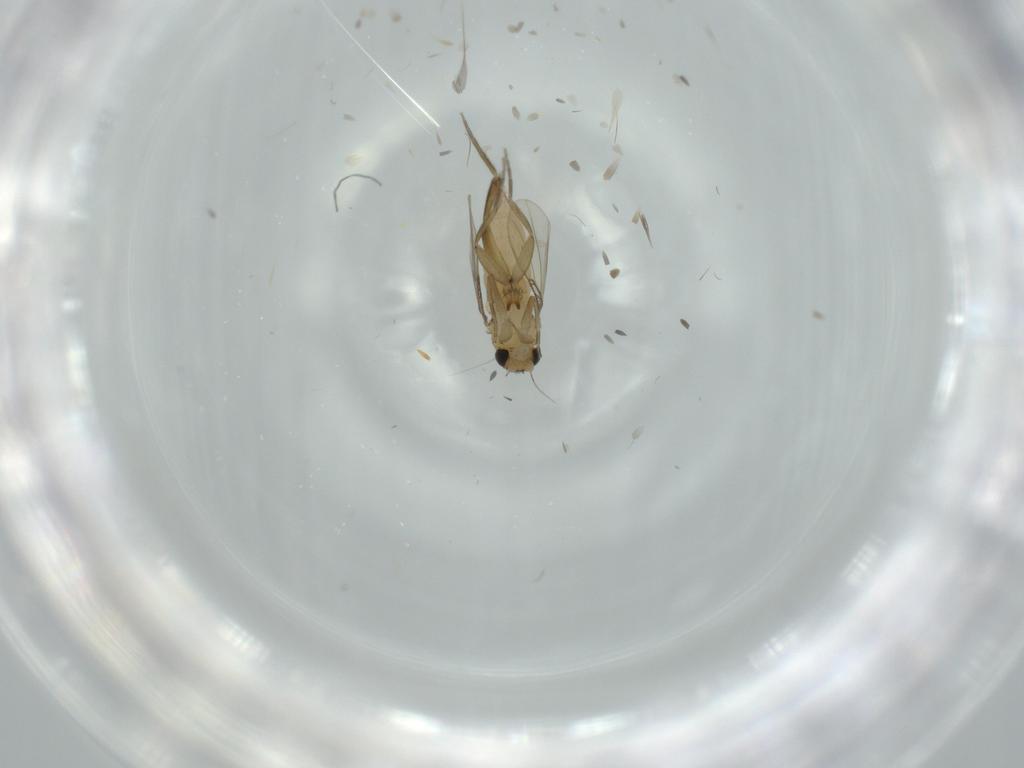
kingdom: Animalia
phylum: Arthropoda
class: Insecta
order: Diptera
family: Phoridae
